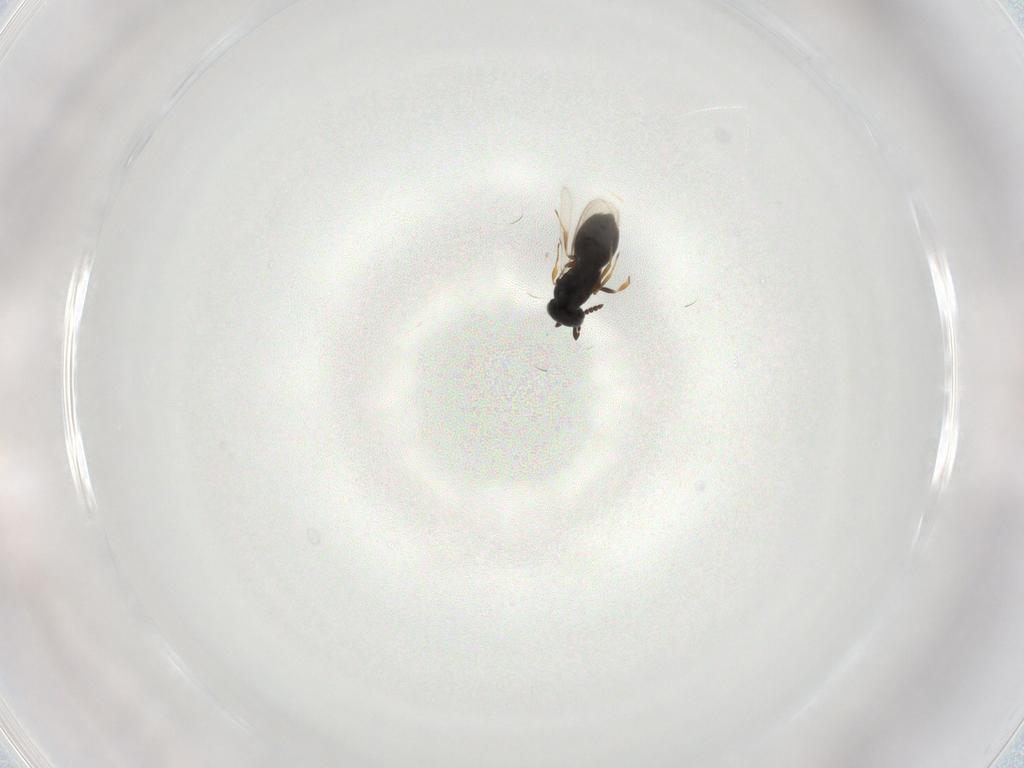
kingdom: Animalia
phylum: Arthropoda
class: Insecta
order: Hymenoptera
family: Scelionidae
